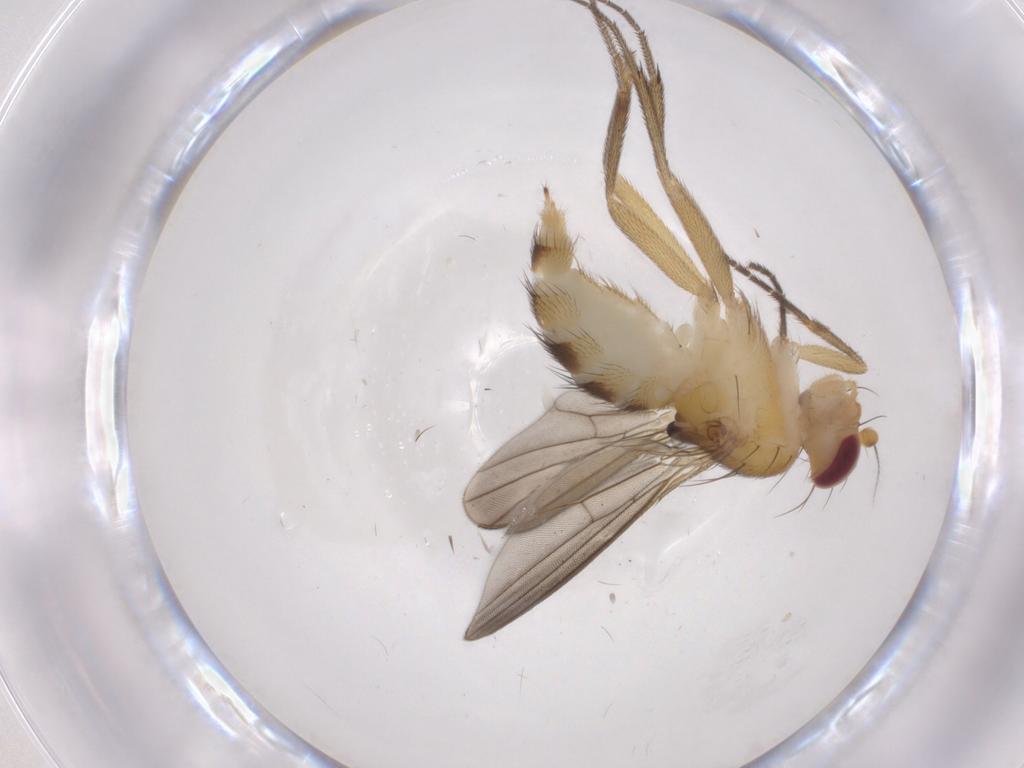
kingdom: Animalia
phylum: Arthropoda
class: Insecta
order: Diptera
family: Clusiidae
